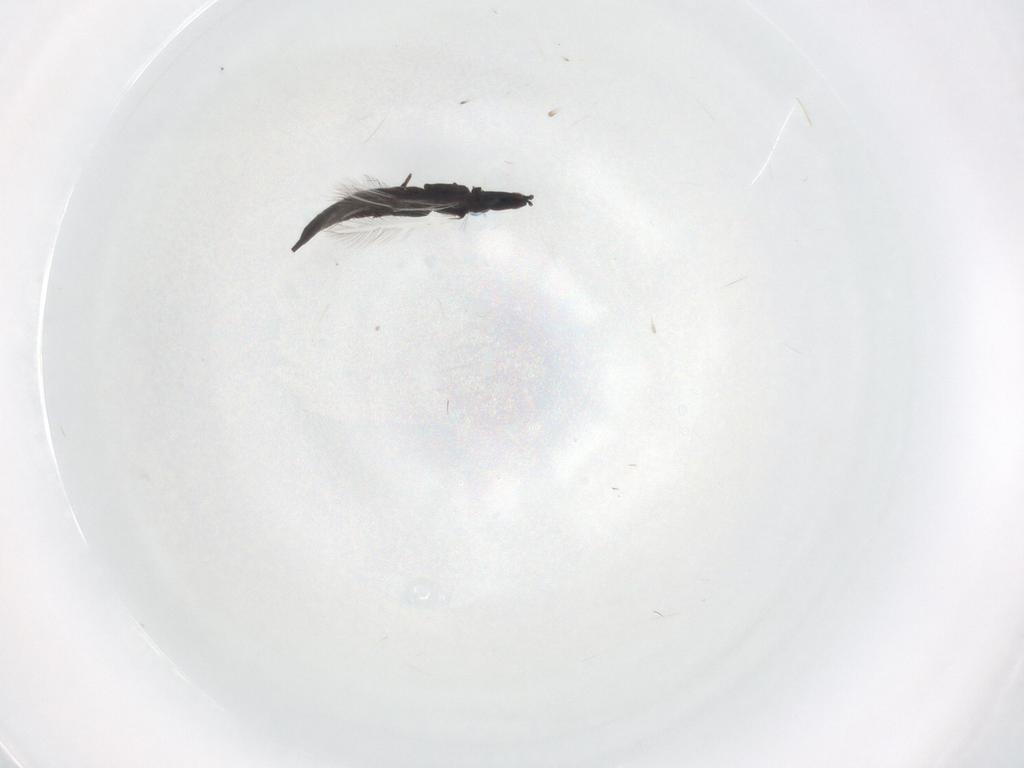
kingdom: Animalia
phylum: Arthropoda
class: Insecta
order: Thysanoptera
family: Phlaeothripidae
